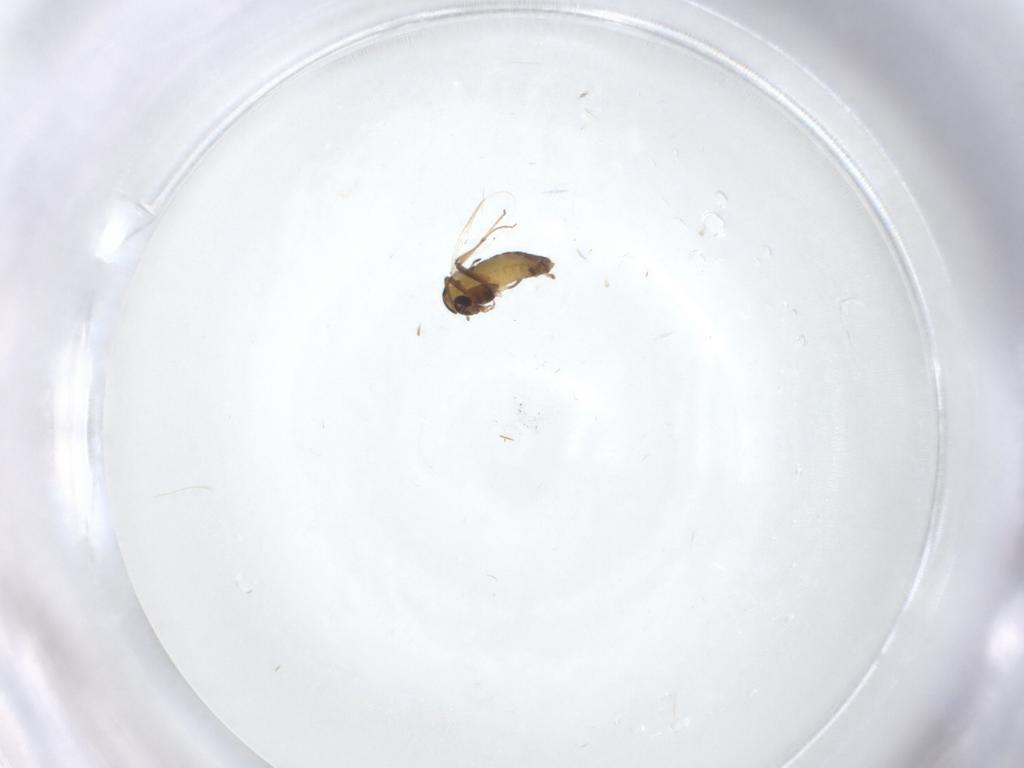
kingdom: Animalia
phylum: Arthropoda
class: Insecta
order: Diptera
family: Chironomidae
